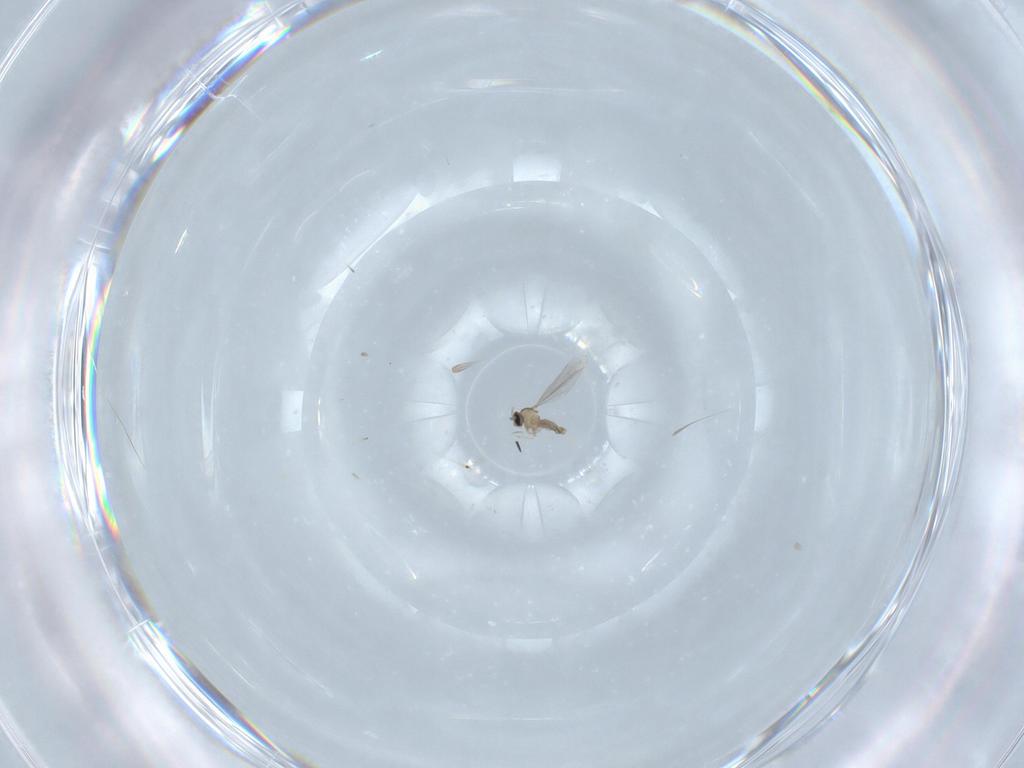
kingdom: Animalia
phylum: Arthropoda
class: Insecta
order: Diptera
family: Cecidomyiidae
